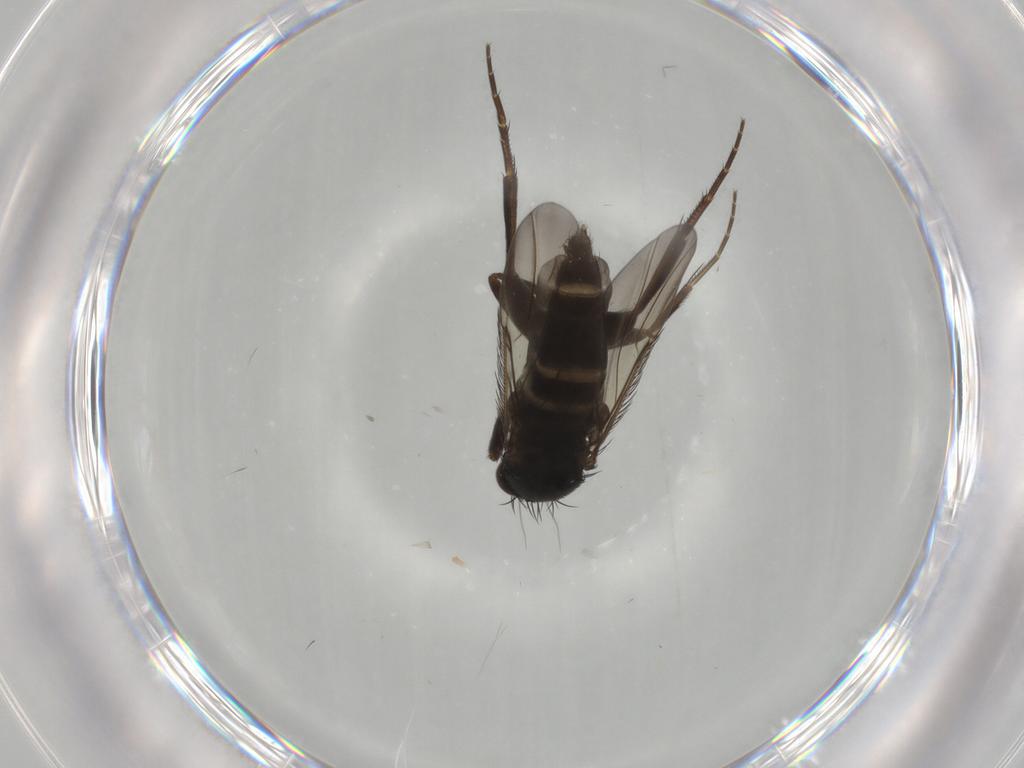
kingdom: Animalia
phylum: Arthropoda
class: Insecta
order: Diptera
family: Phoridae
